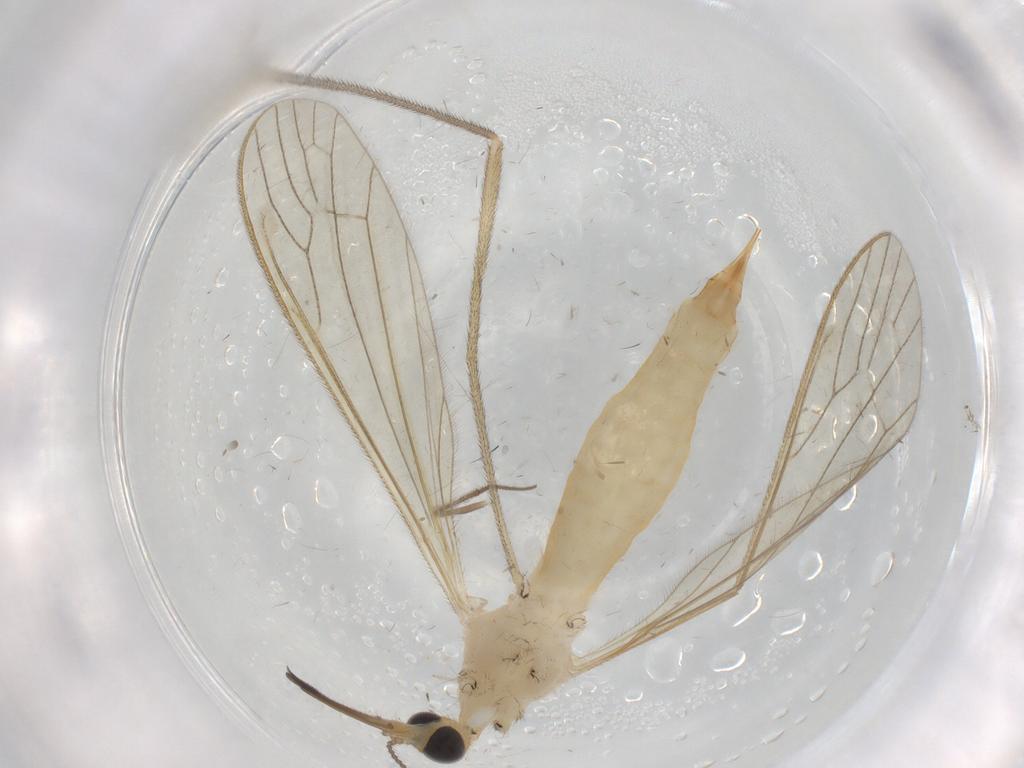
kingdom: Animalia
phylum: Arthropoda
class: Insecta
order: Diptera
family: Limoniidae
